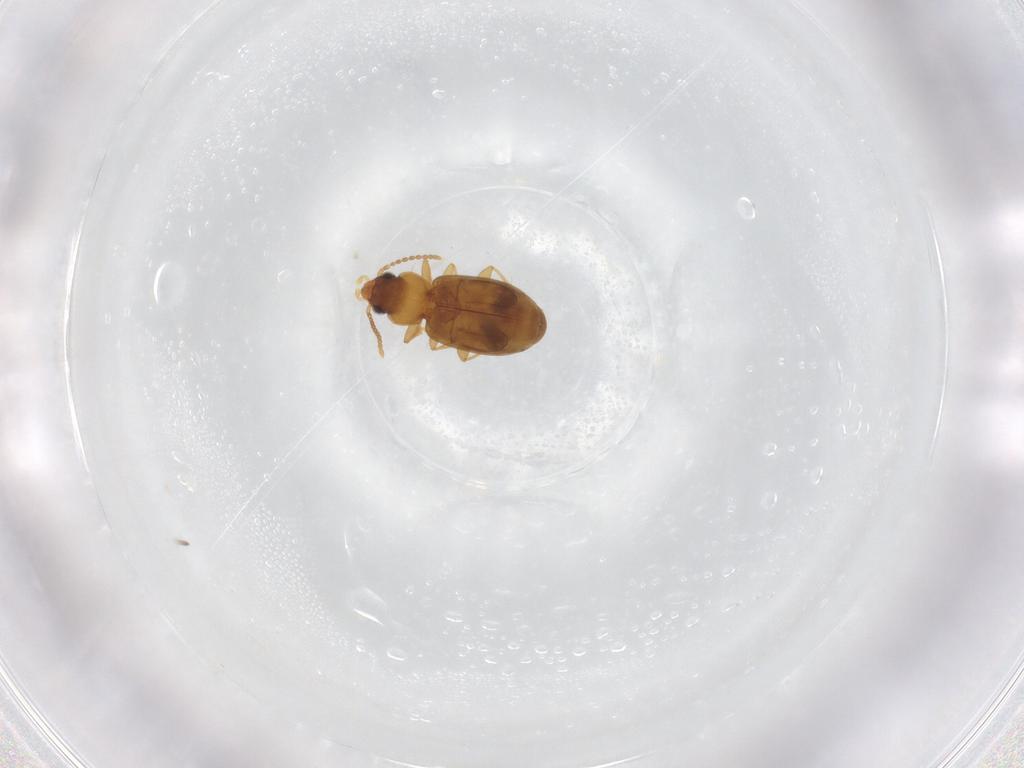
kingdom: Animalia
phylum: Arthropoda
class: Insecta
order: Coleoptera
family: Carabidae
